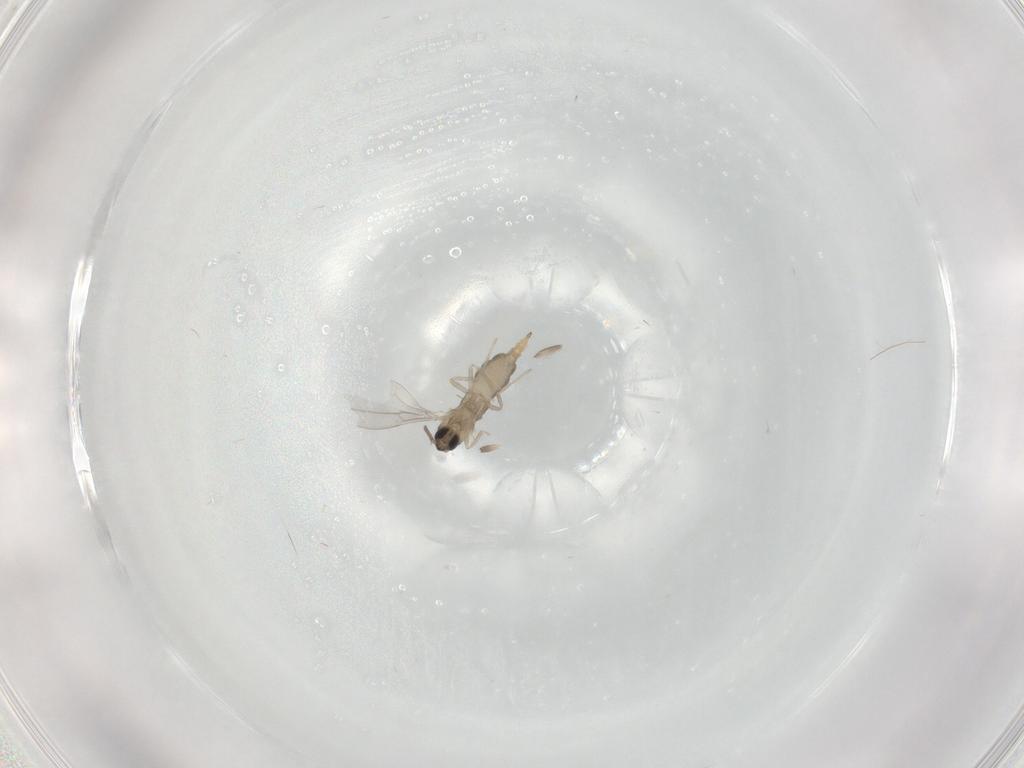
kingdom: Animalia
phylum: Arthropoda
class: Insecta
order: Diptera
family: Cecidomyiidae
